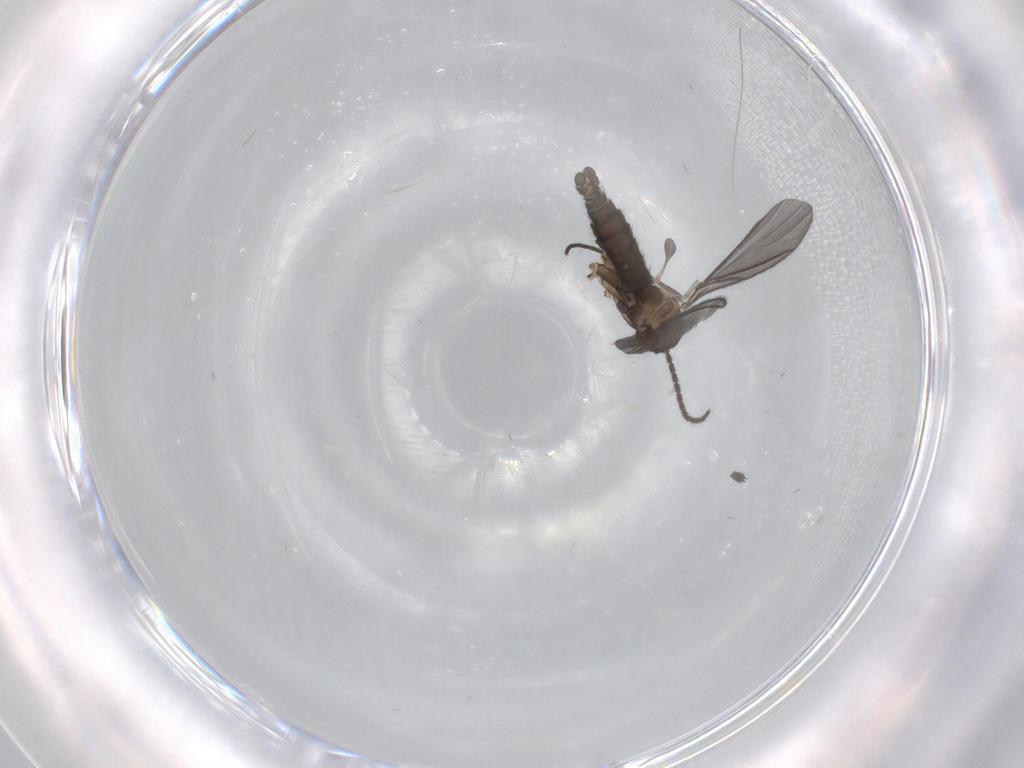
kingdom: Animalia
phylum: Arthropoda
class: Insecta
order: Diptera
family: Sciaridae
